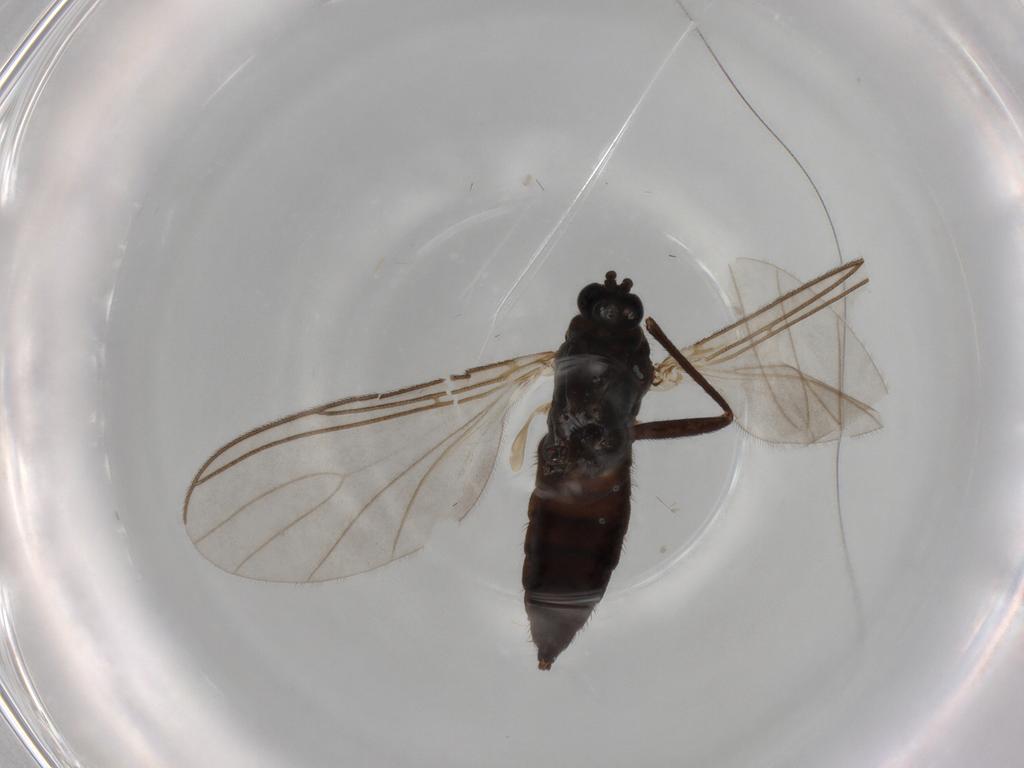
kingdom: Animalia
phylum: Arthropoda
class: Insecta
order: Diptera
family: Sciaridae
